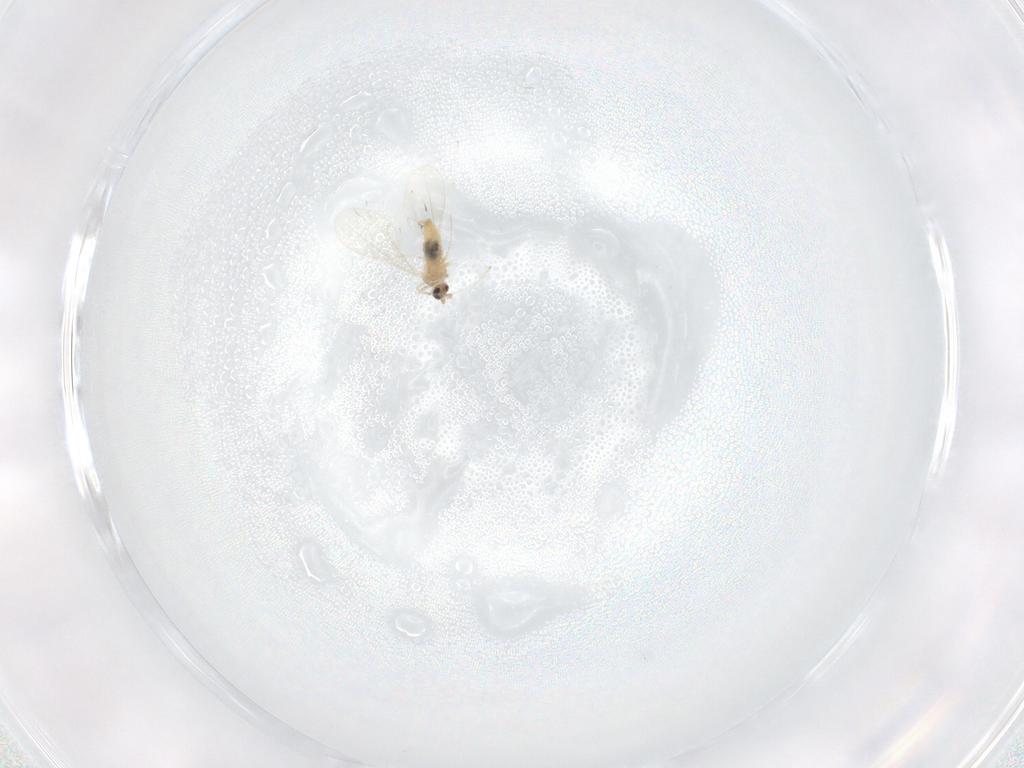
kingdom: Animalia
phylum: Arthropoda
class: Insecta
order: Diptera
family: Cecidomyiidae
